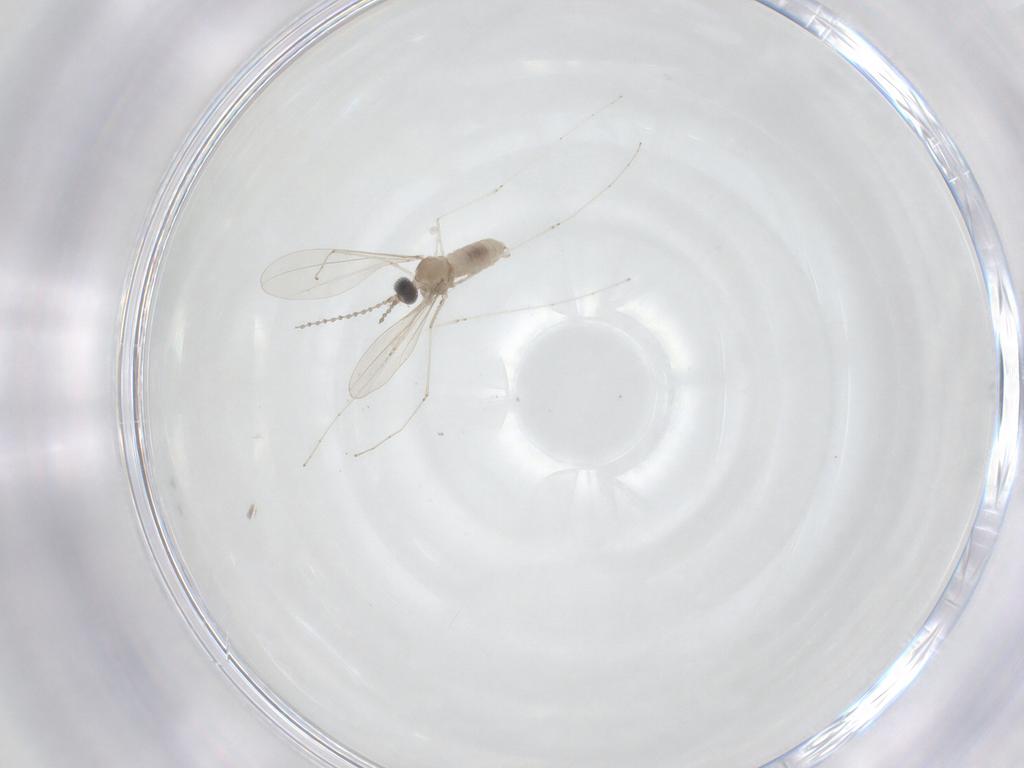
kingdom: Animalia
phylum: Arthropoda
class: Insecta
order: Diptera
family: Cecidomyiidae
